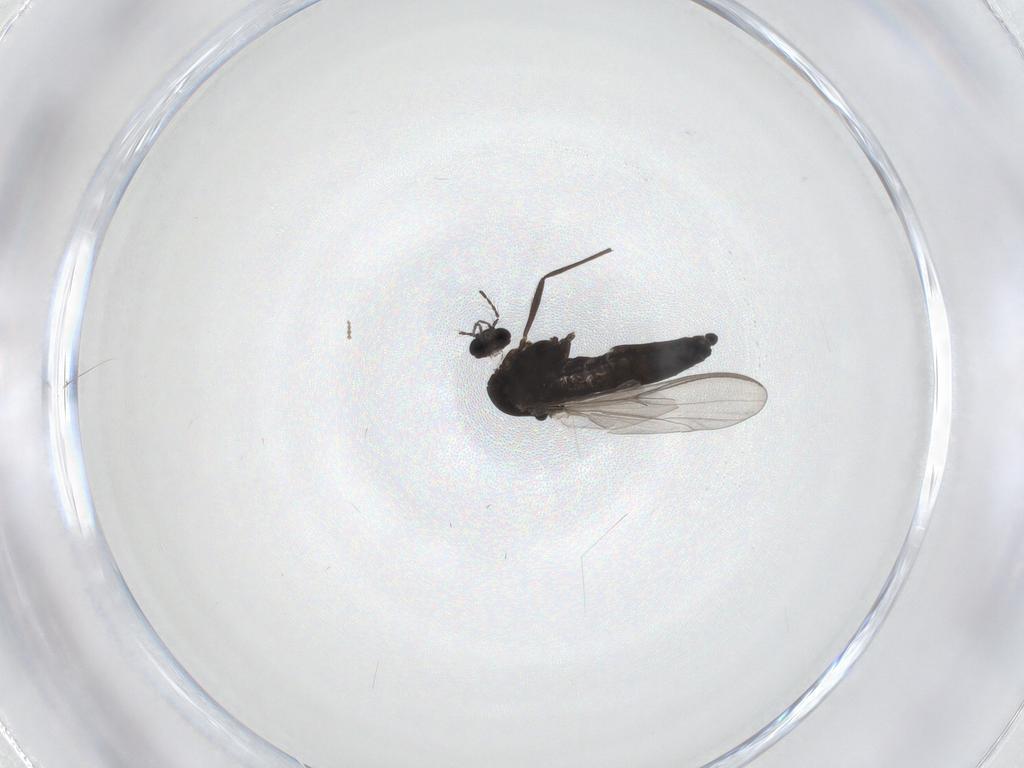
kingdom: Animalia
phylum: Arthropoda
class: Insecta
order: Diptera
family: Chironomidae
